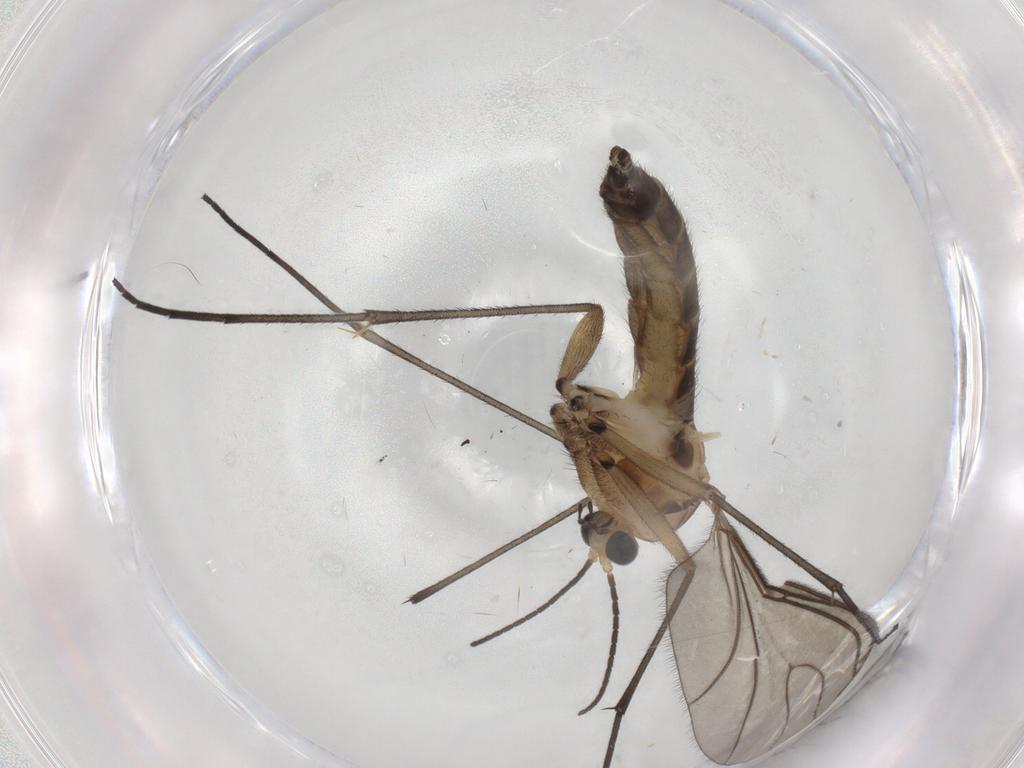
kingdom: Animalia
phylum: Arthropoda
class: Insecta
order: Diptera
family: Sciaridae
